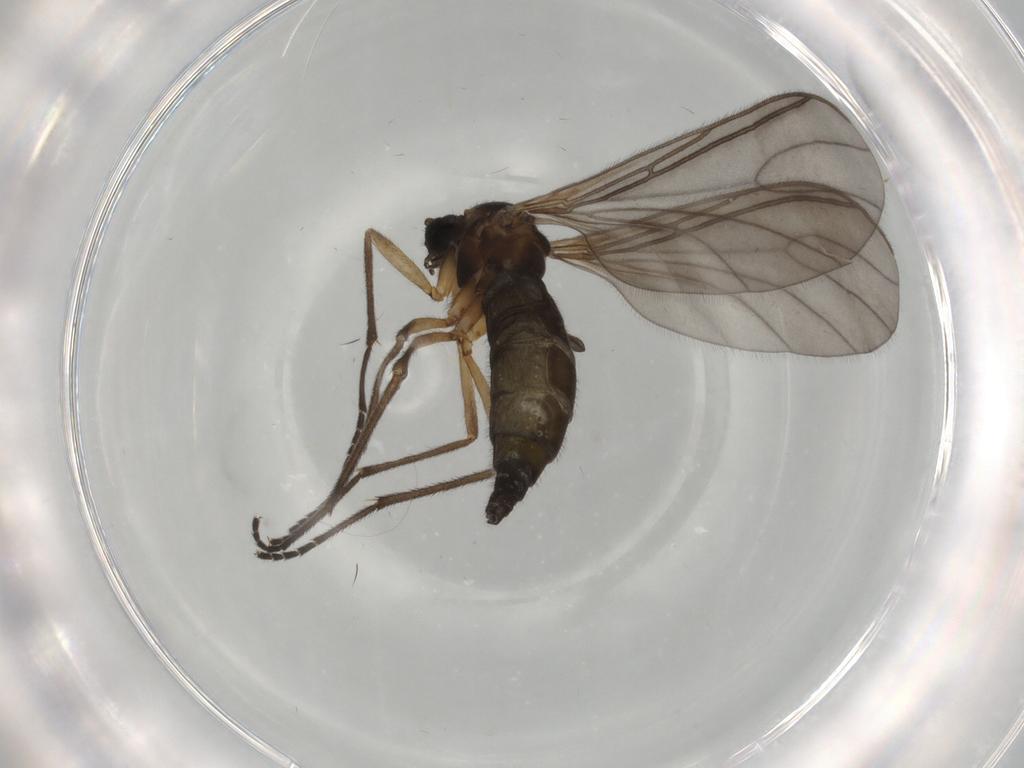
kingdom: Animalia
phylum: Arthropoda
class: Insecta
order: Diptera
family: Sciaridae
